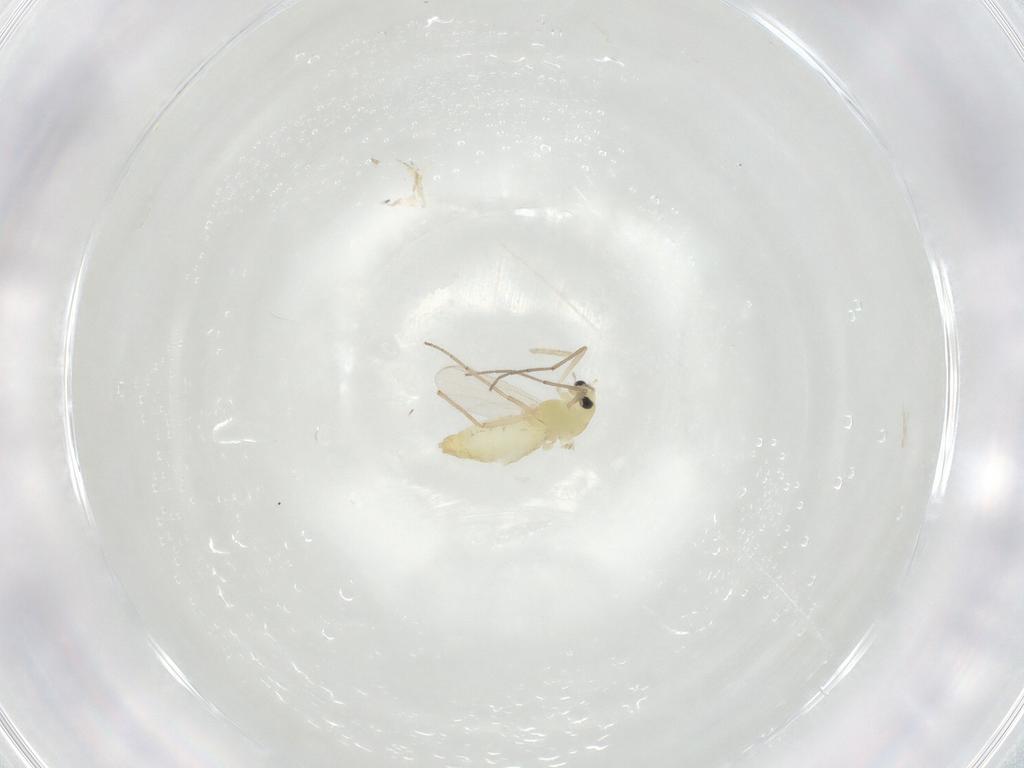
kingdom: Animalia
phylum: Arthropoda
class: Insecta
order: Diptera
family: Chironomidae
